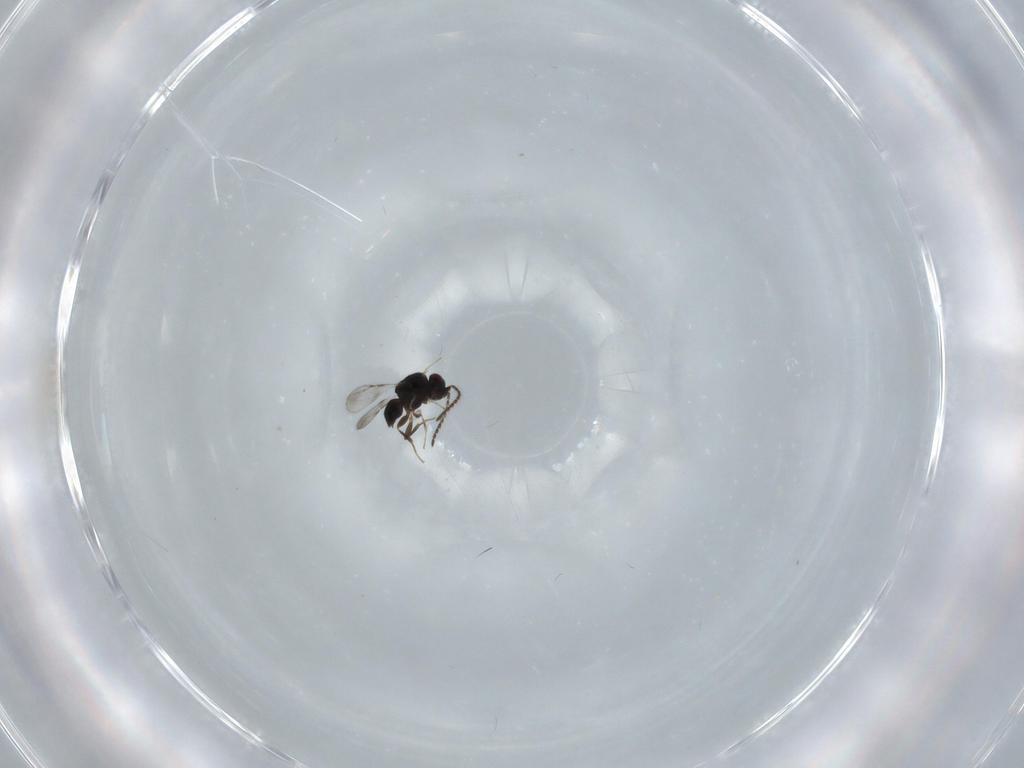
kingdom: Animalia
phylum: Arthropoda
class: Insecta
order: Hymenoptera
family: Ceraphronidae
